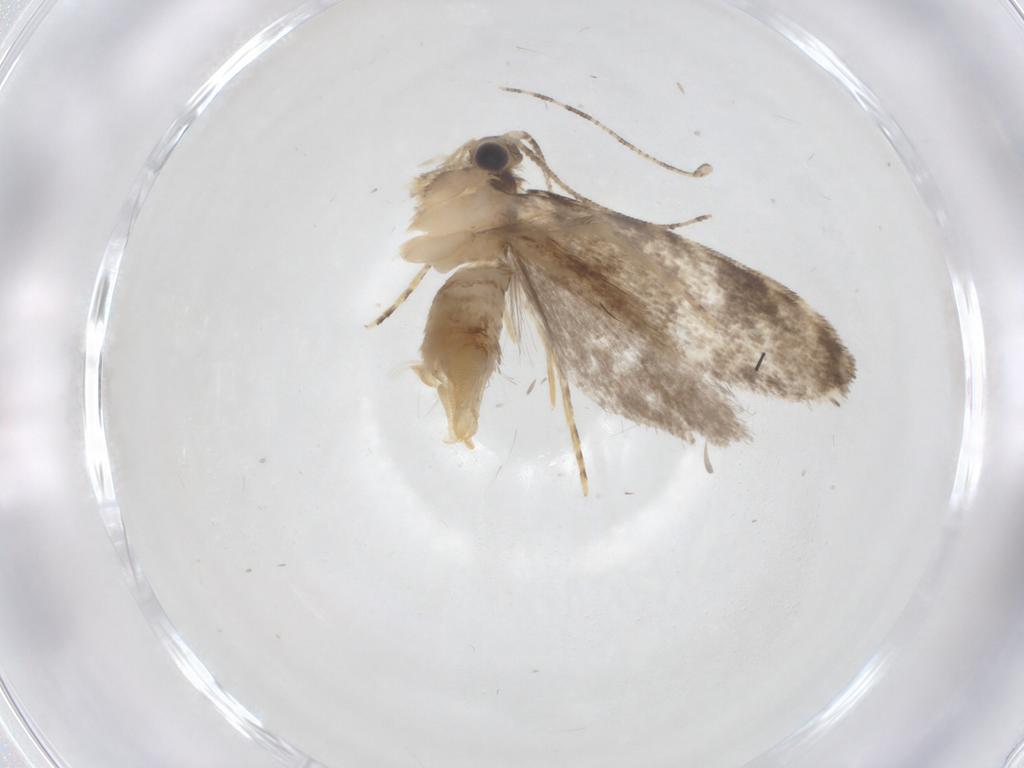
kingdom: Animalia
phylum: Arthropoda
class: Insecta
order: Lepidoptera
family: Tineidae
